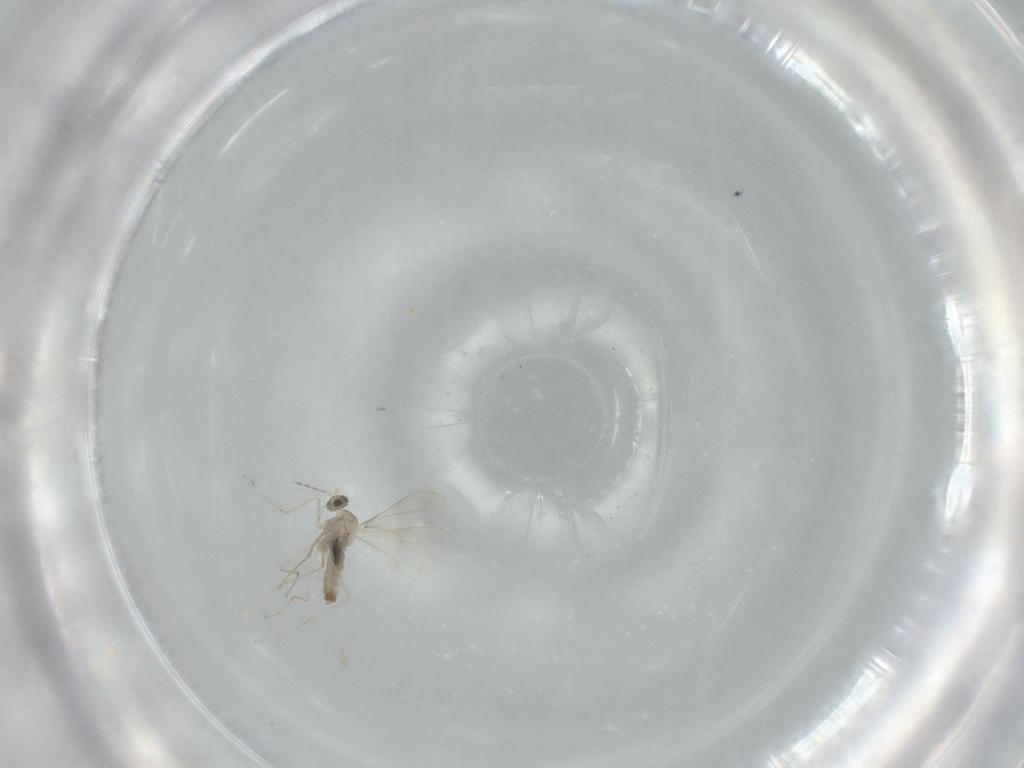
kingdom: Animalia
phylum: Arthropoda
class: Insecta
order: Diptera
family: Cecidomyiidae
